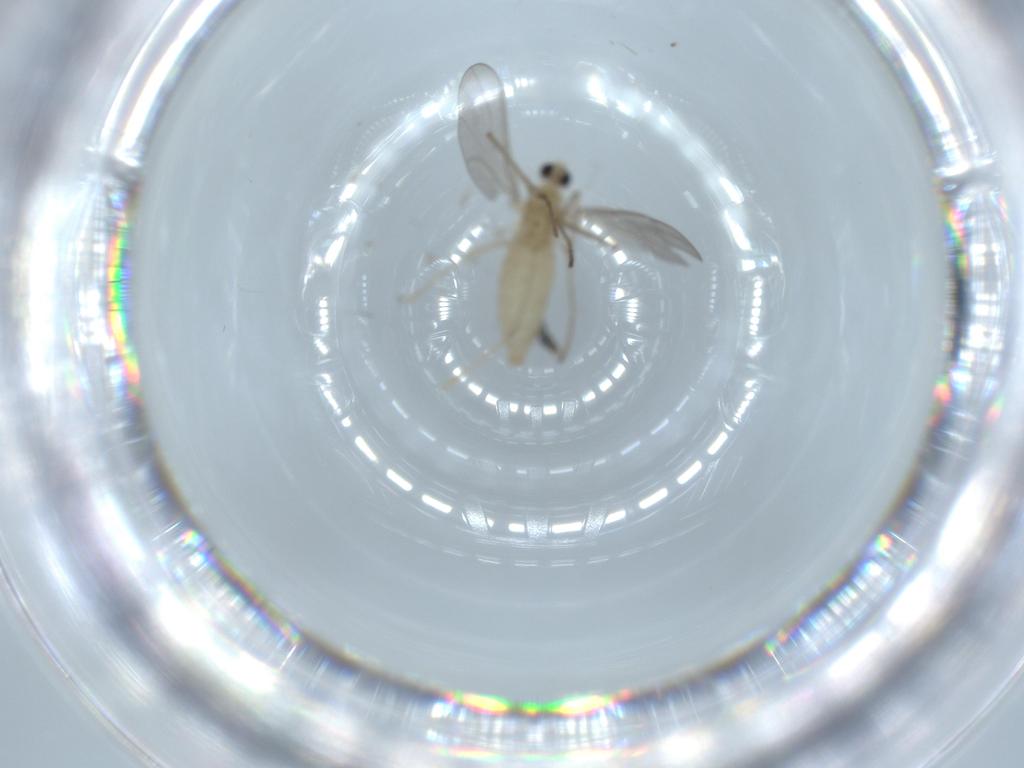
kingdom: Animalia
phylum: Arthropoda
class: Insecta
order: Diptera
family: Cecidomyiidae
